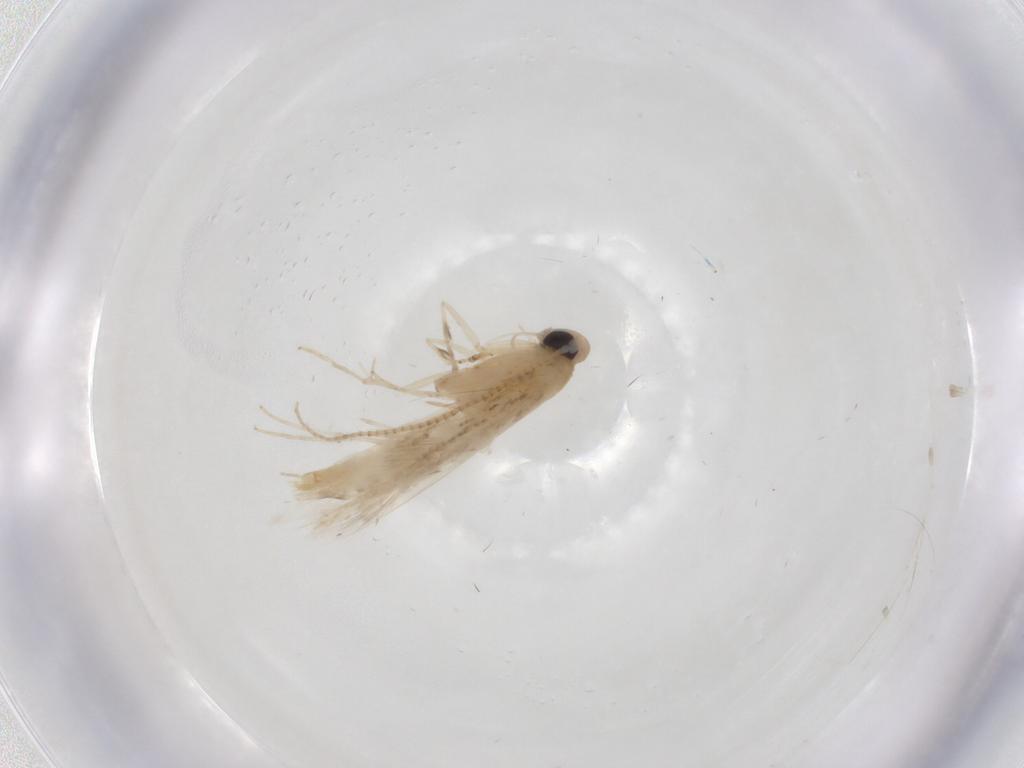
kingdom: Animalia
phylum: Arthropoda
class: Insecta
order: Lepidoptera
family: Gracillariidae
